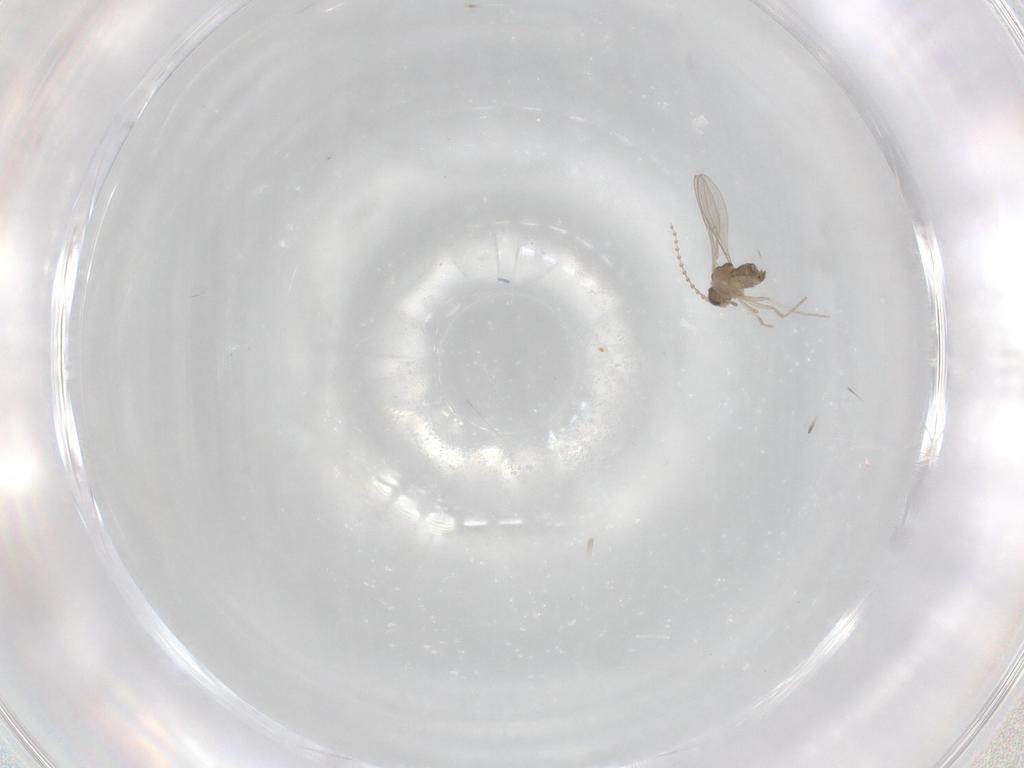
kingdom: Animalia
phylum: Arthropoda
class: Insecta
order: Diptera
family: Cecidomyiidae
